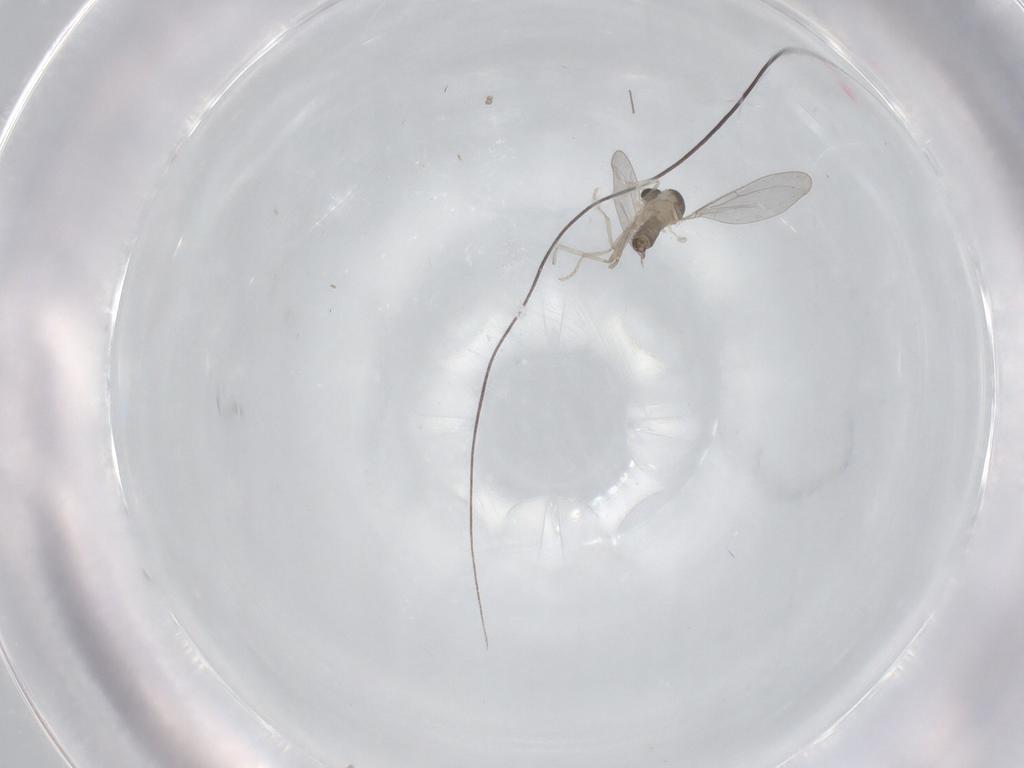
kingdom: Animalia
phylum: Arthropoda
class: Insecta
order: Diptera
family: Cecidomyiidae
